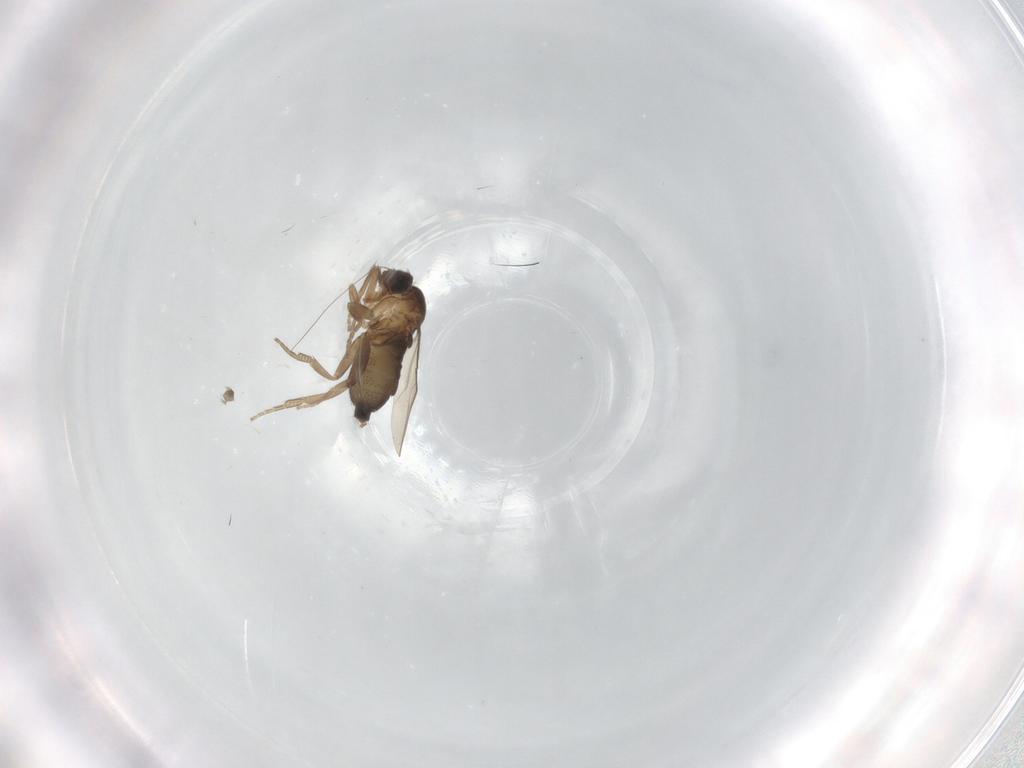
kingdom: Animalia
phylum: Arthropoda
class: Insecta
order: Diptera
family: Phoridae
